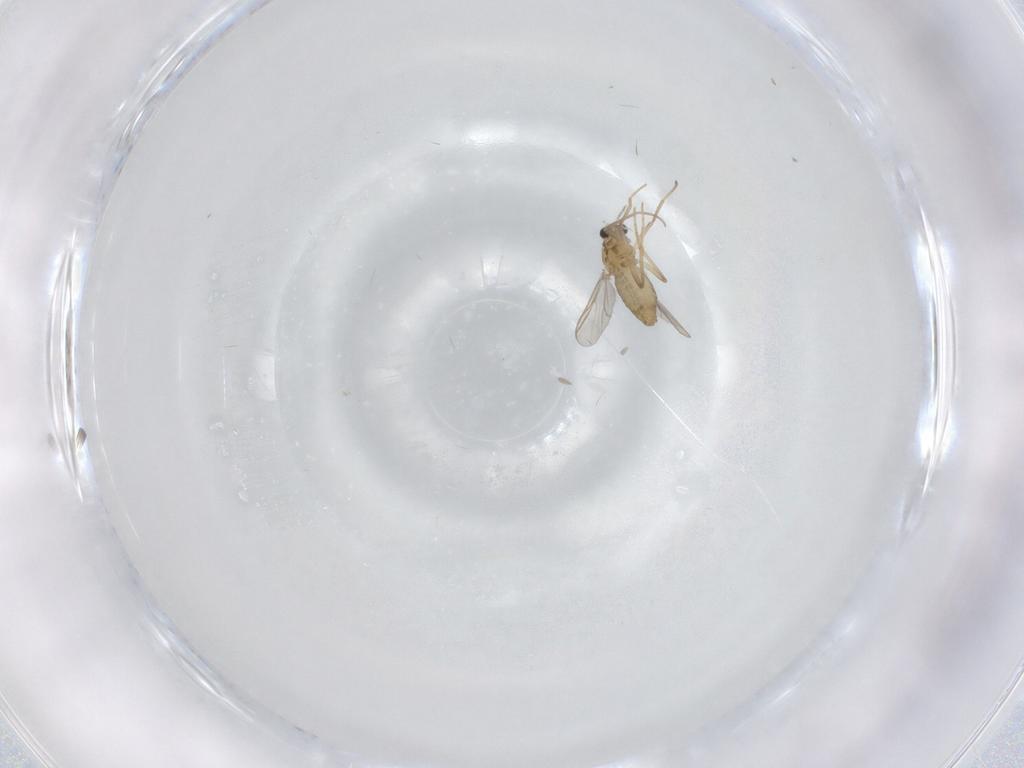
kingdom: Animalia
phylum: Arthropoda
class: Insecta
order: Diptera
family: Chironomidae
